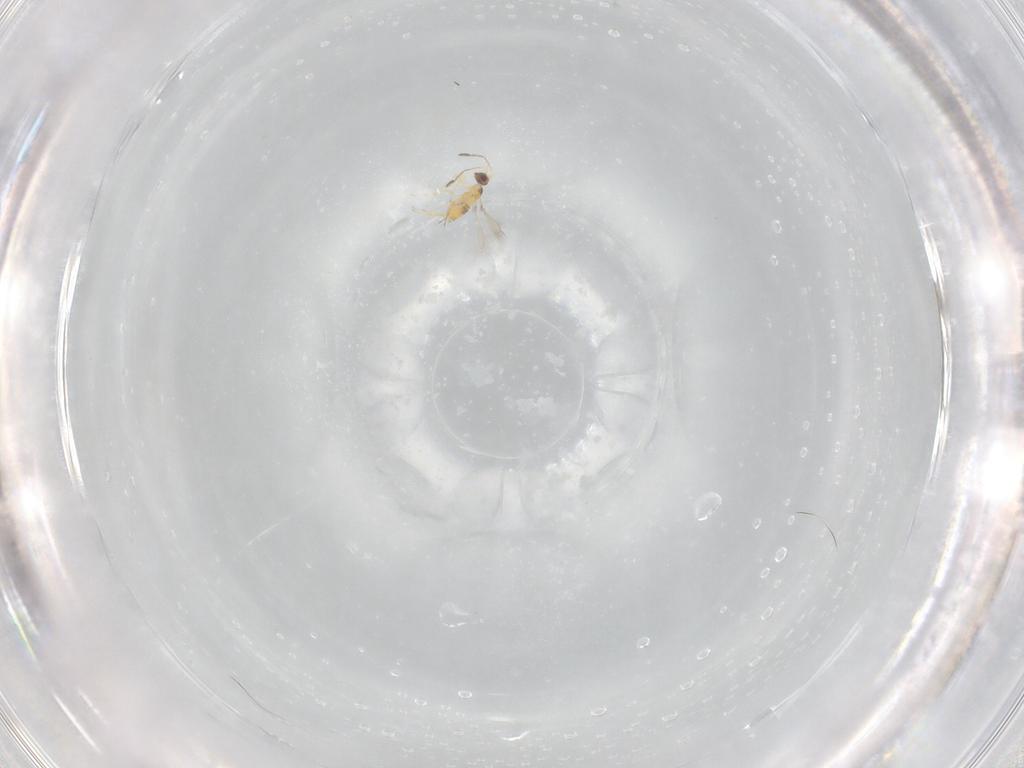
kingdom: Animalia
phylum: Arthropoda
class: Insecta
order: Hymenoptera
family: Mymaridae
